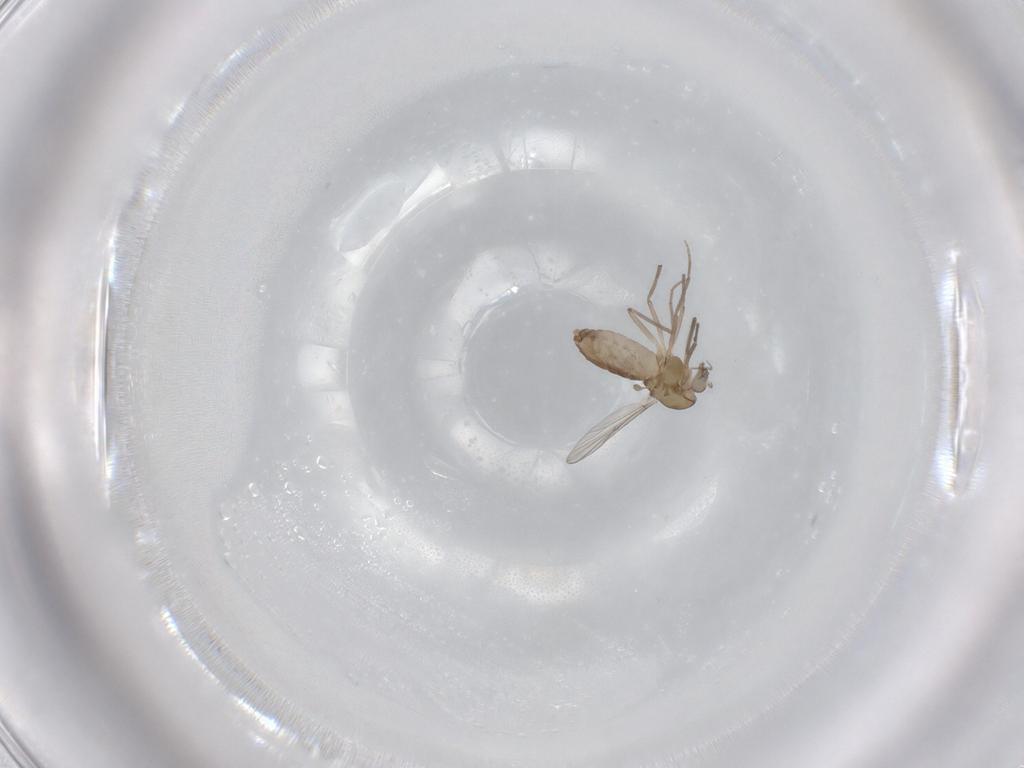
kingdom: Animalia
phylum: Arthropoda
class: Insecta
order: Diptera
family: Chironomidae
